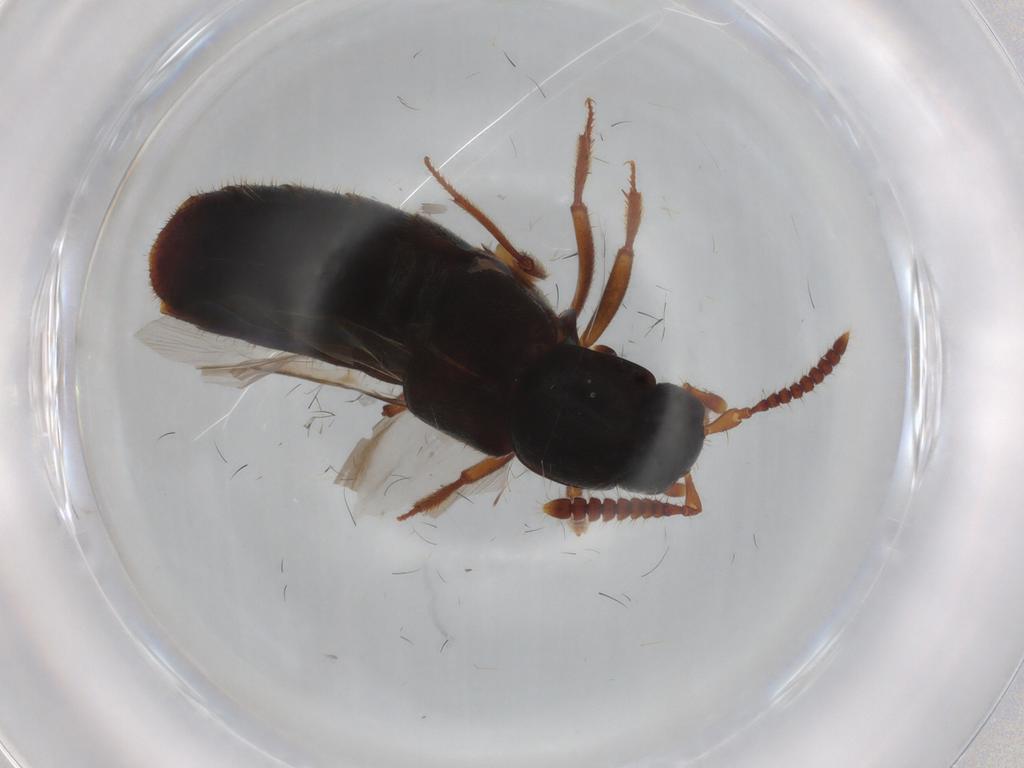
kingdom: Animalia
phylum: Arthropoda
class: Insecta
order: Coleoptera
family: Staphylinidae
